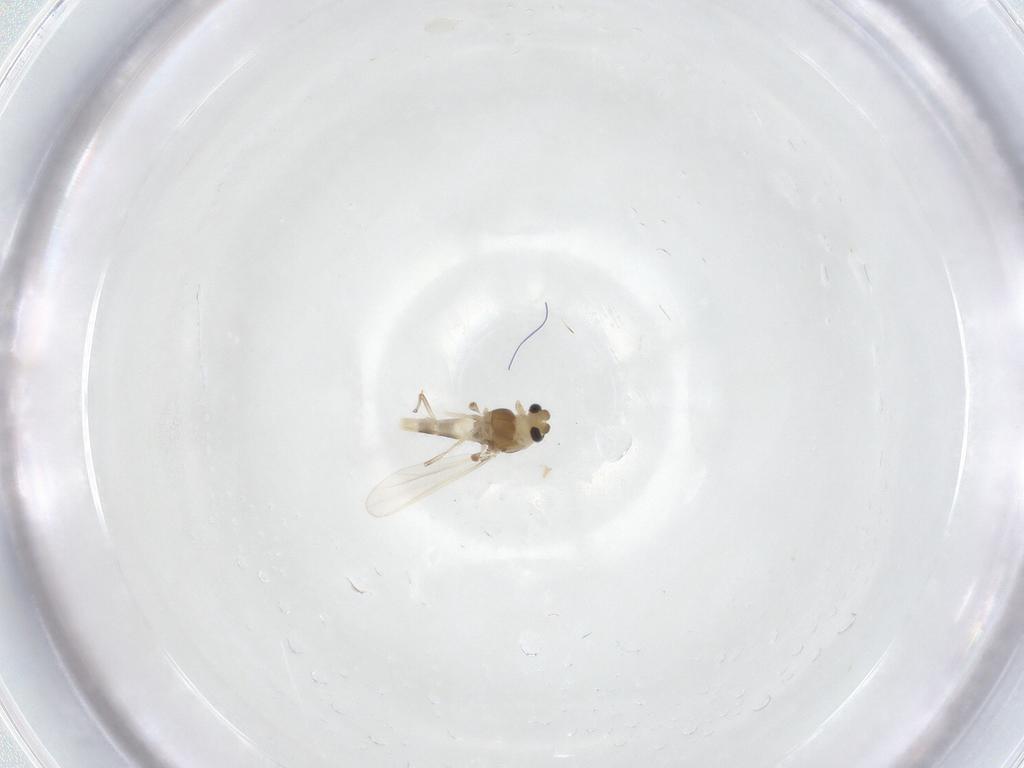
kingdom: Animalia
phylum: Arthropoda
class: Insecta
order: Diptera
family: Chironomidae
